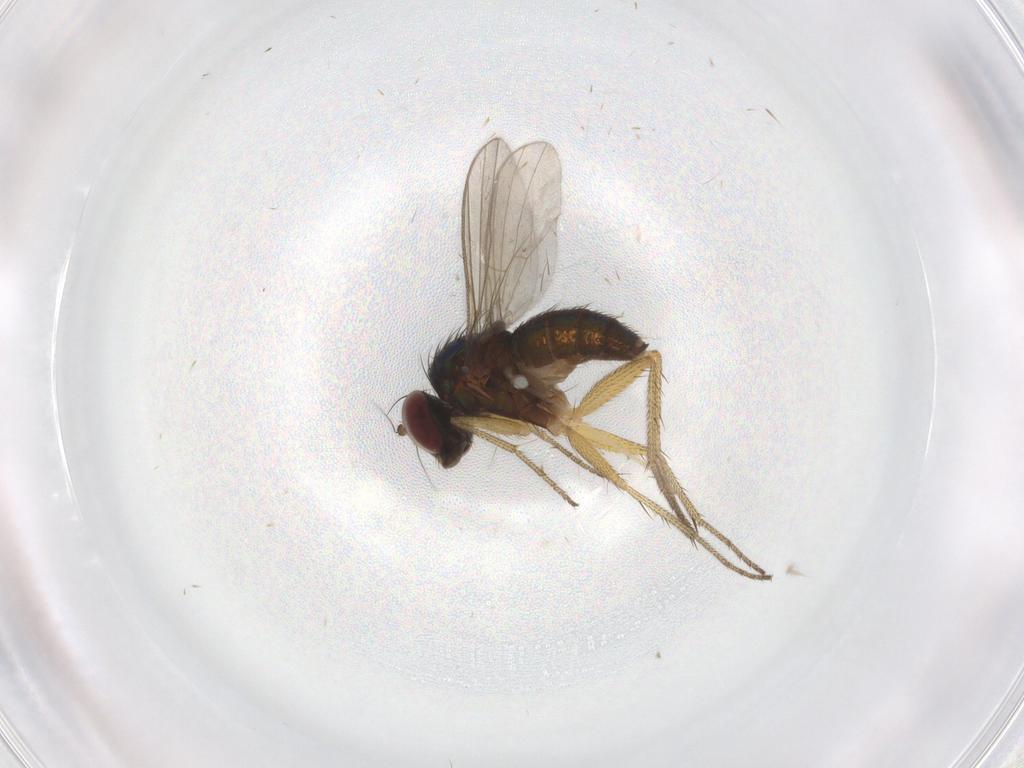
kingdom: Animalia
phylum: Arthropoda
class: Insecta
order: Diptera
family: Dolichopodidae
